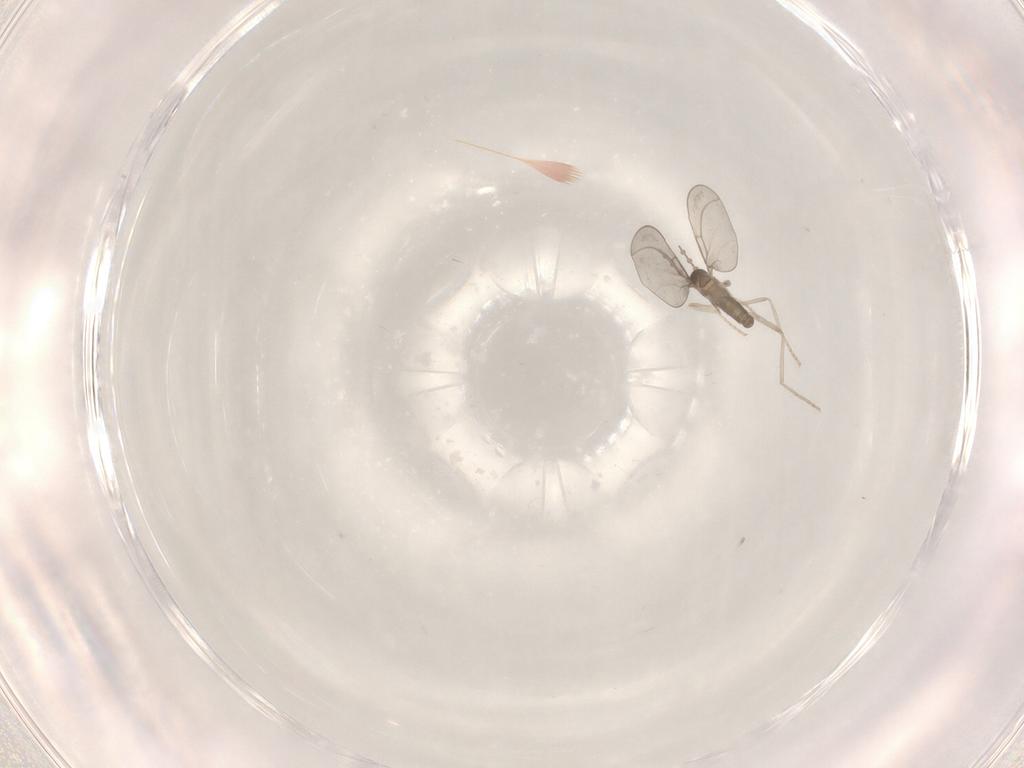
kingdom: Animalia
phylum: Arthropoda
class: Insecta
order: Diptera
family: Cecidomyiidae
